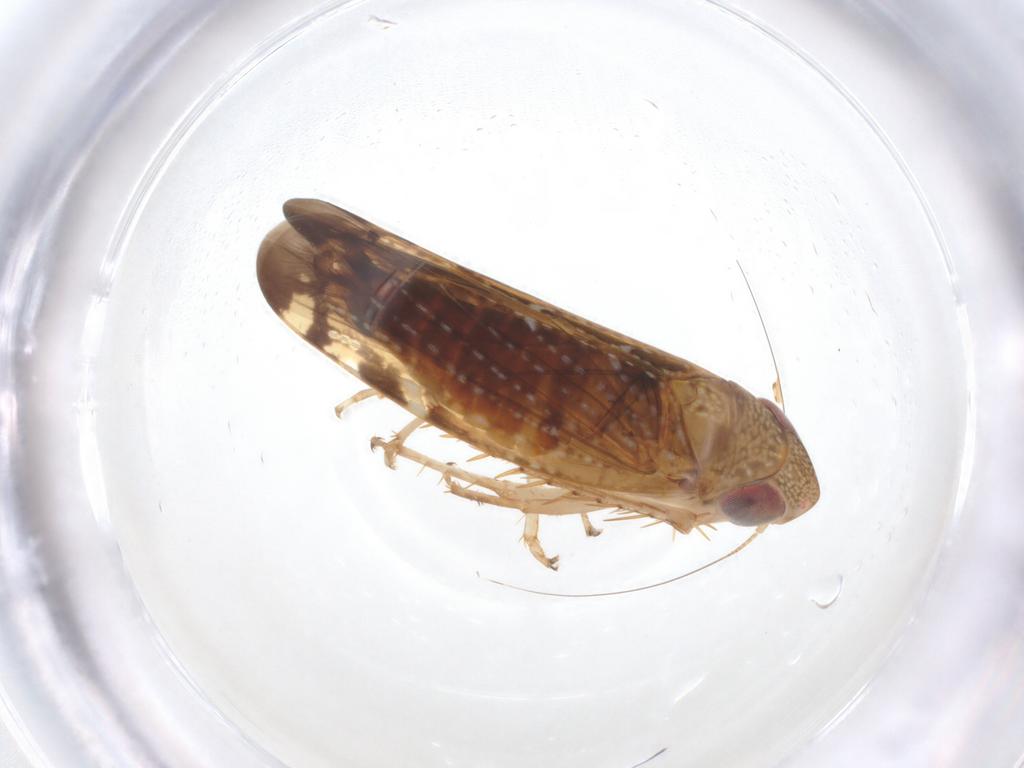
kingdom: Animalia
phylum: Arthropoda
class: Insecta
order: Hemiptera
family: Cicadellidae
